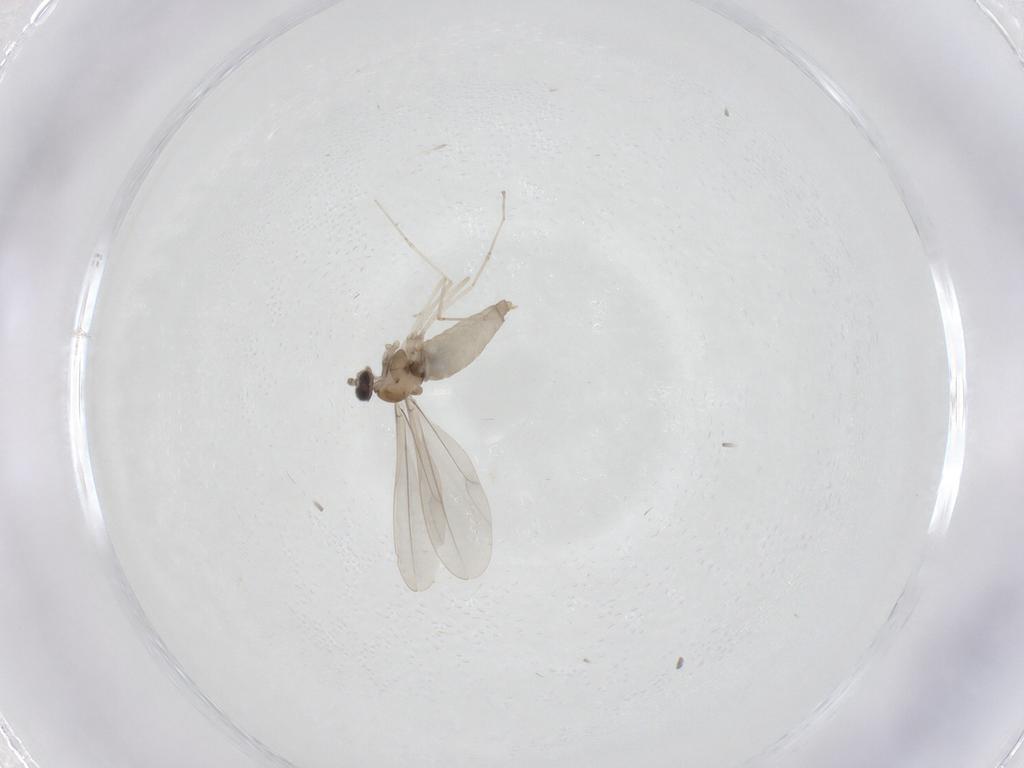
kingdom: Animalia
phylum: Arthropoda
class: Insecta
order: Diptera
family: Cecidomyiidae
